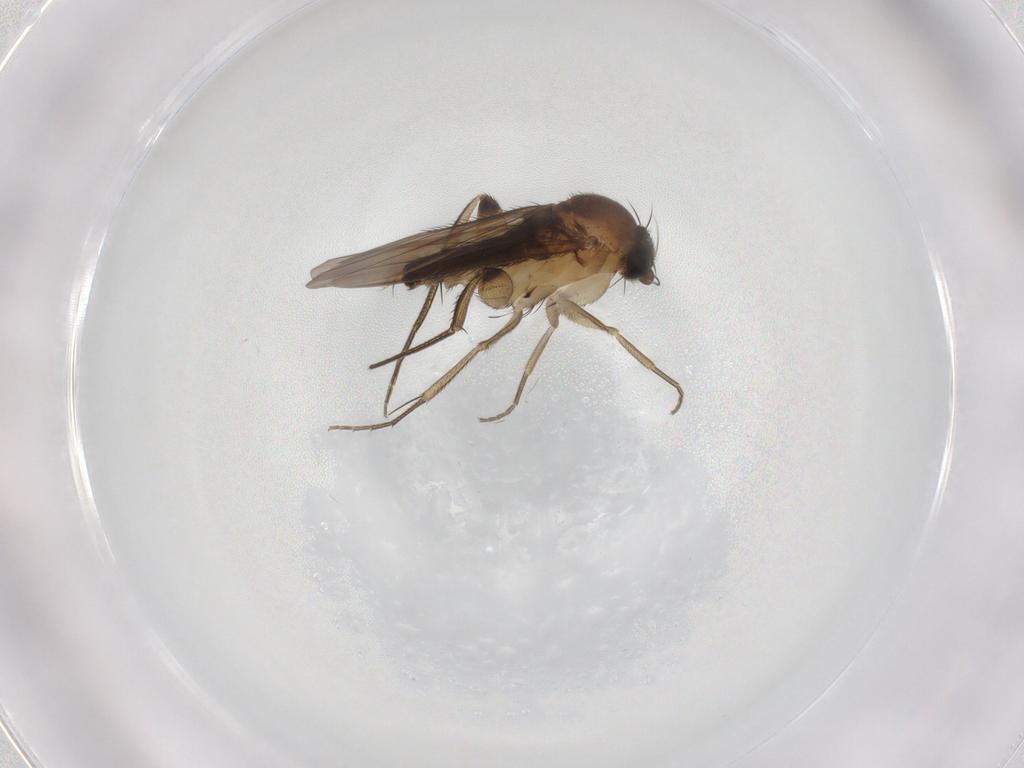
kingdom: Animalia
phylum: Arthropoda
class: Insecta
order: Diptera
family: Phoridae
